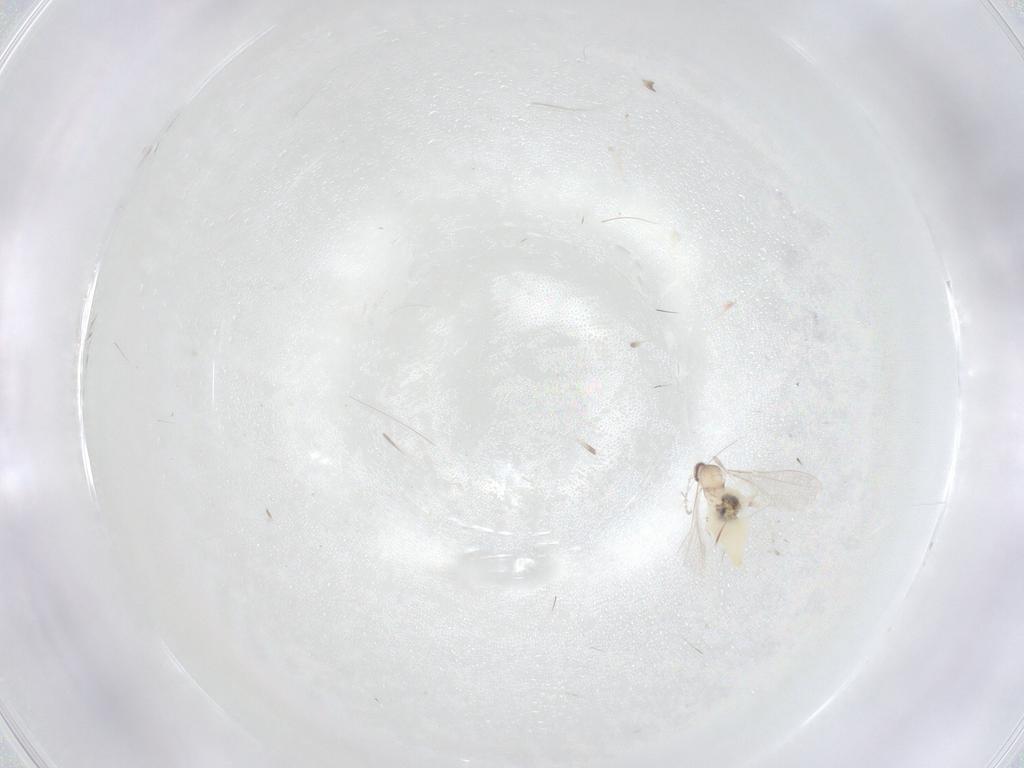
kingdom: Animalia
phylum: Arthropoda
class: Insecta
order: Diptera
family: Cecidomyiidae
